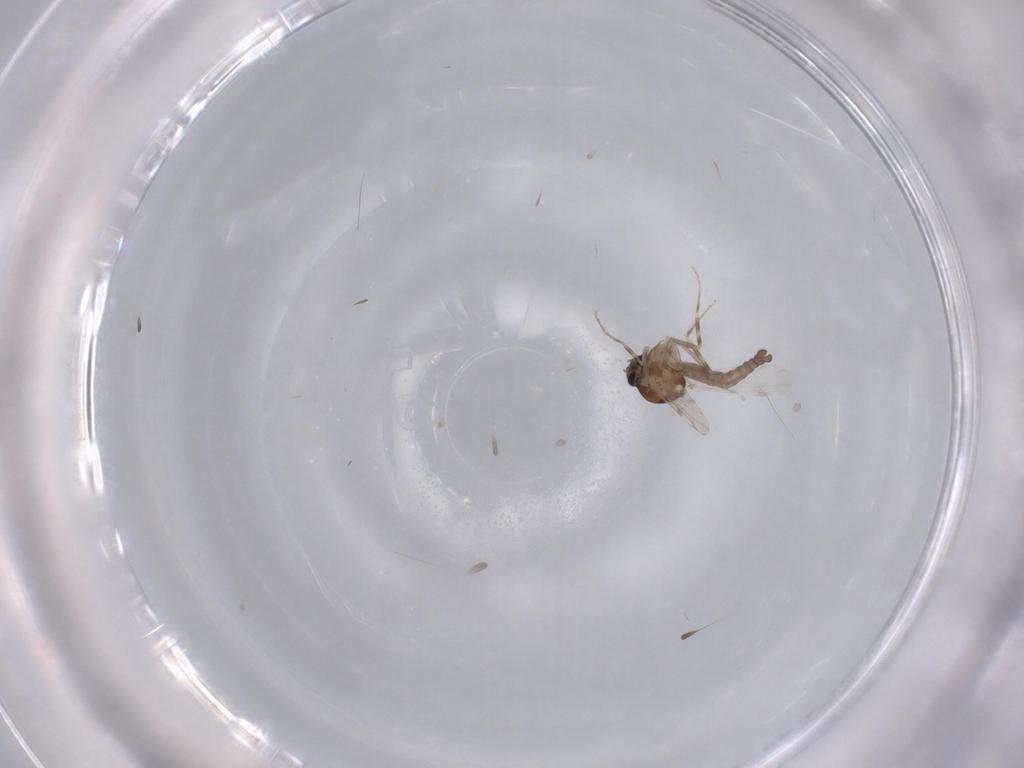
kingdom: Animalia
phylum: Arthropoda
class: Insecta
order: Diptera
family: Ceratopogonidae
